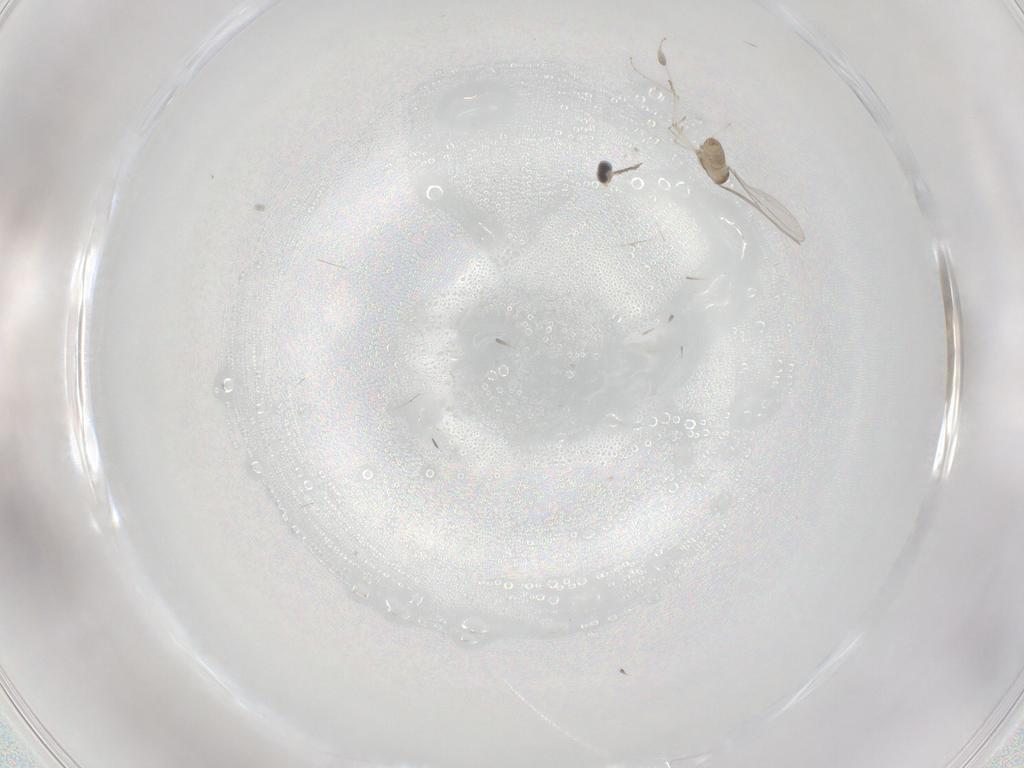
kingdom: Animalia
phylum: Arthropoda
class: Insecta
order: Diptera
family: Cecidomyiidae
